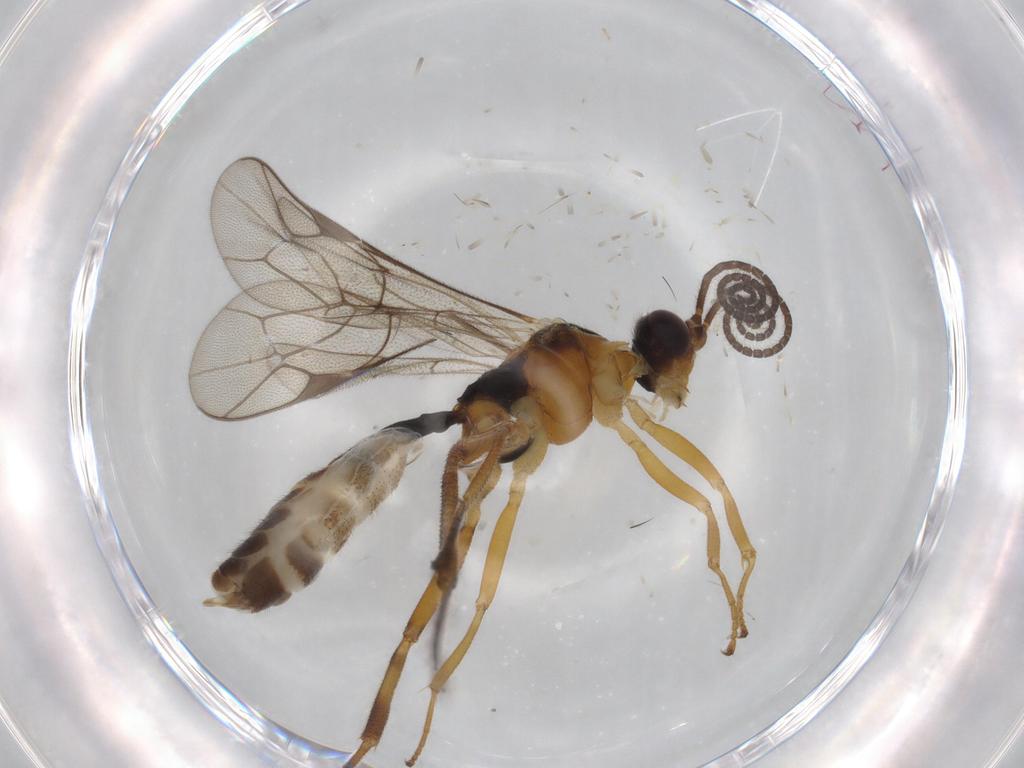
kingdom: Animalia
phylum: Arthropoda
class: Insecta
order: Hymenoptera
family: Ichneumonidae
